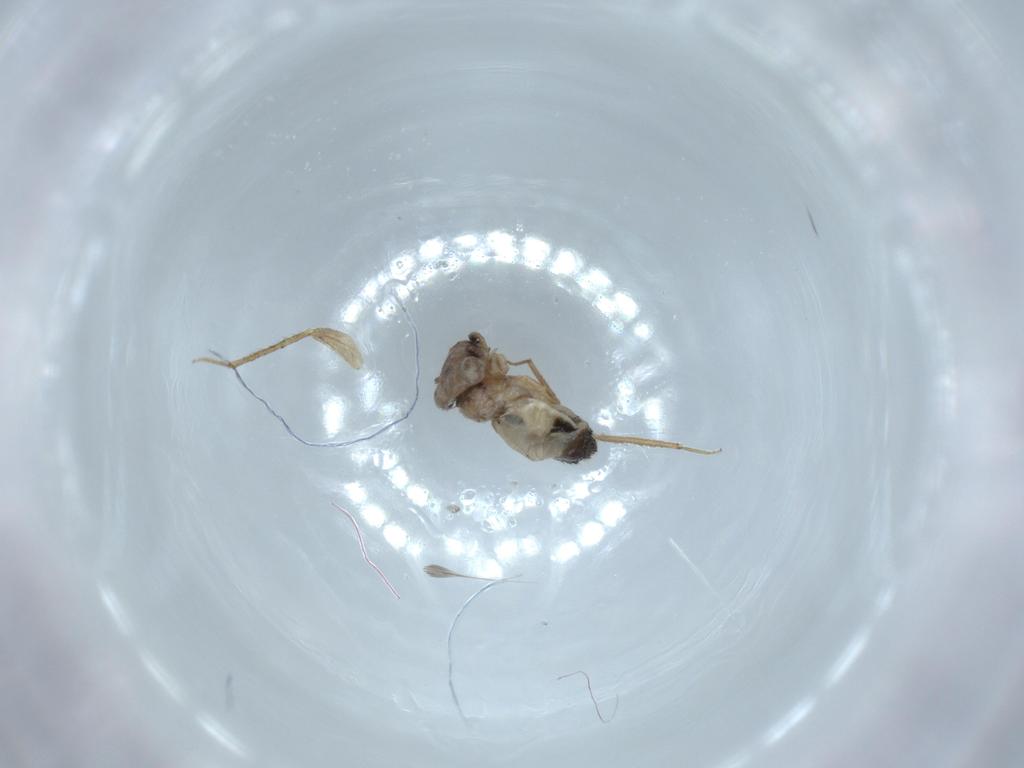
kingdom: Animalia
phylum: Arthropoda
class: Insecta
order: Psocodea
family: Lepidopsocidae
